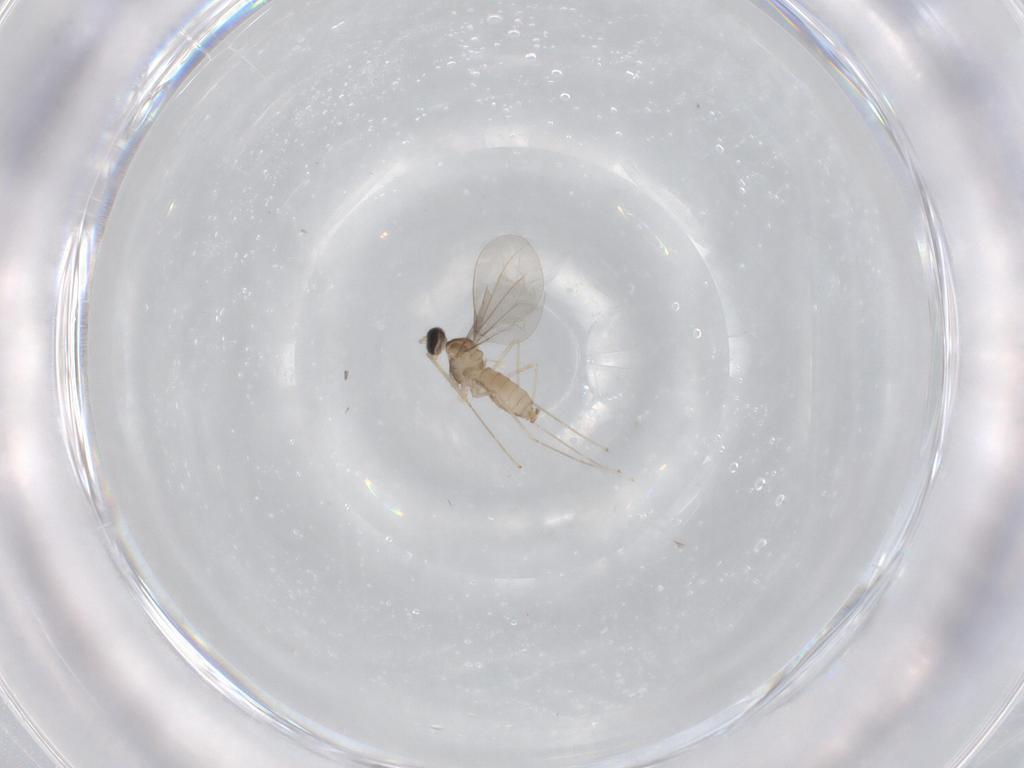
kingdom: Animalia
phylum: Arthropoda
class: Insecta
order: Diptera
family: Cecidomyiidae
